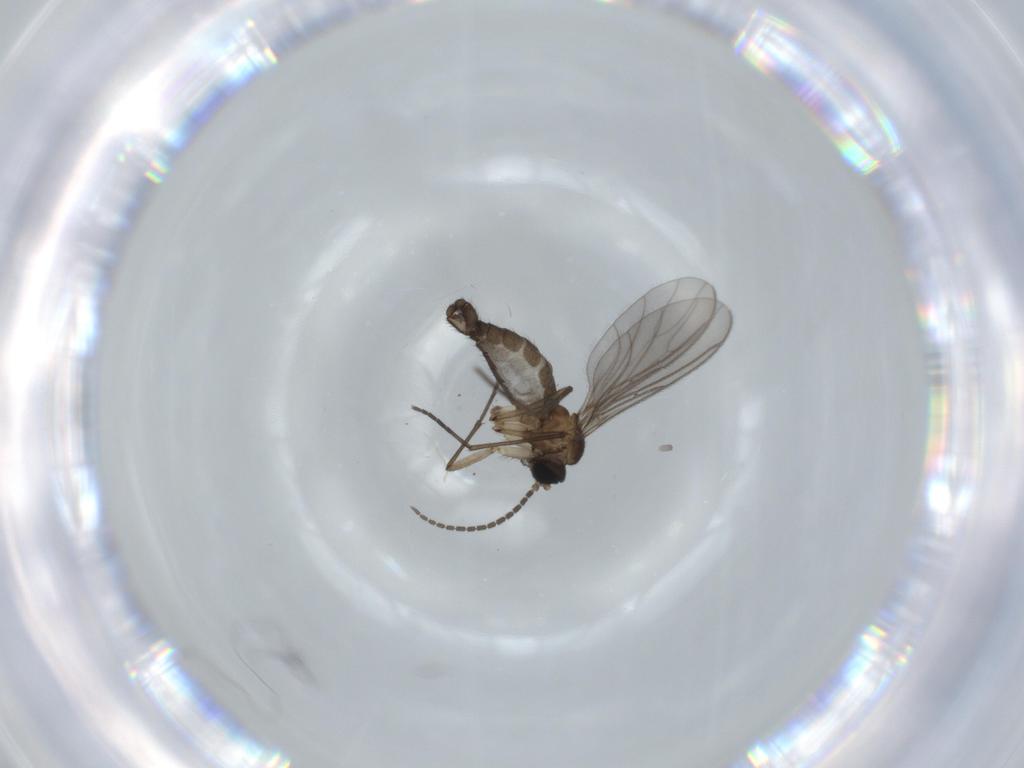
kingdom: Animalia
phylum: Arthropoda
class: Insecta
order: Diptera
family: Sciaridae
